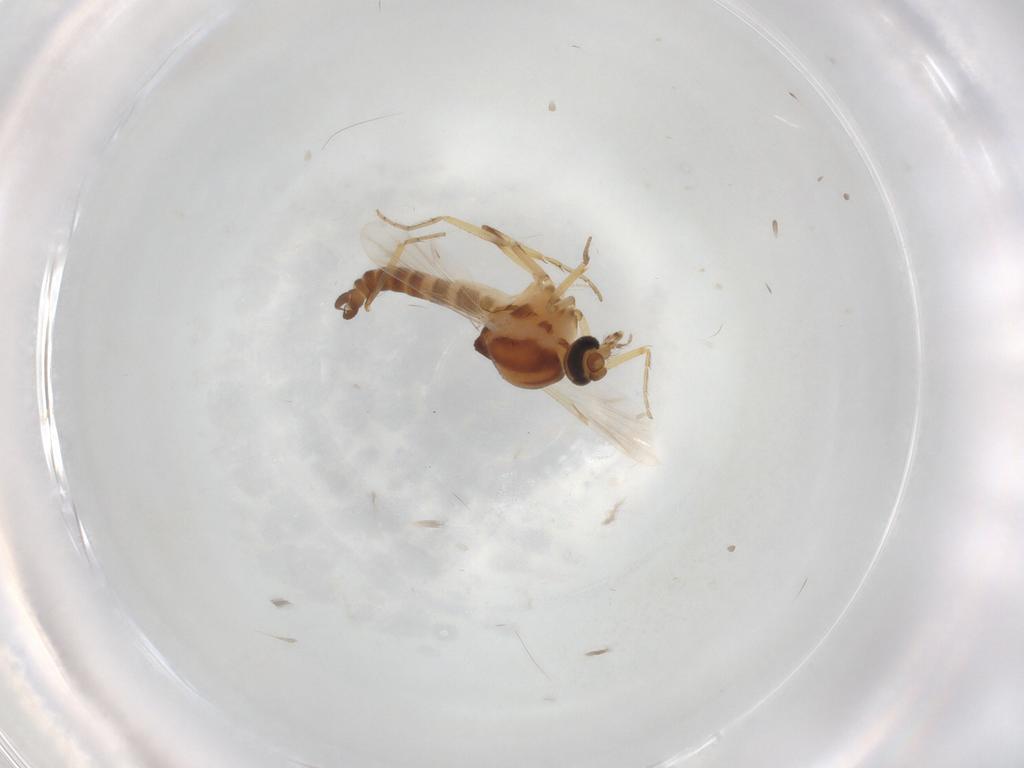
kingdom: Animalia
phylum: Arthropoda
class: Insecta
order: Diptera
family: Ceratopogonidae
